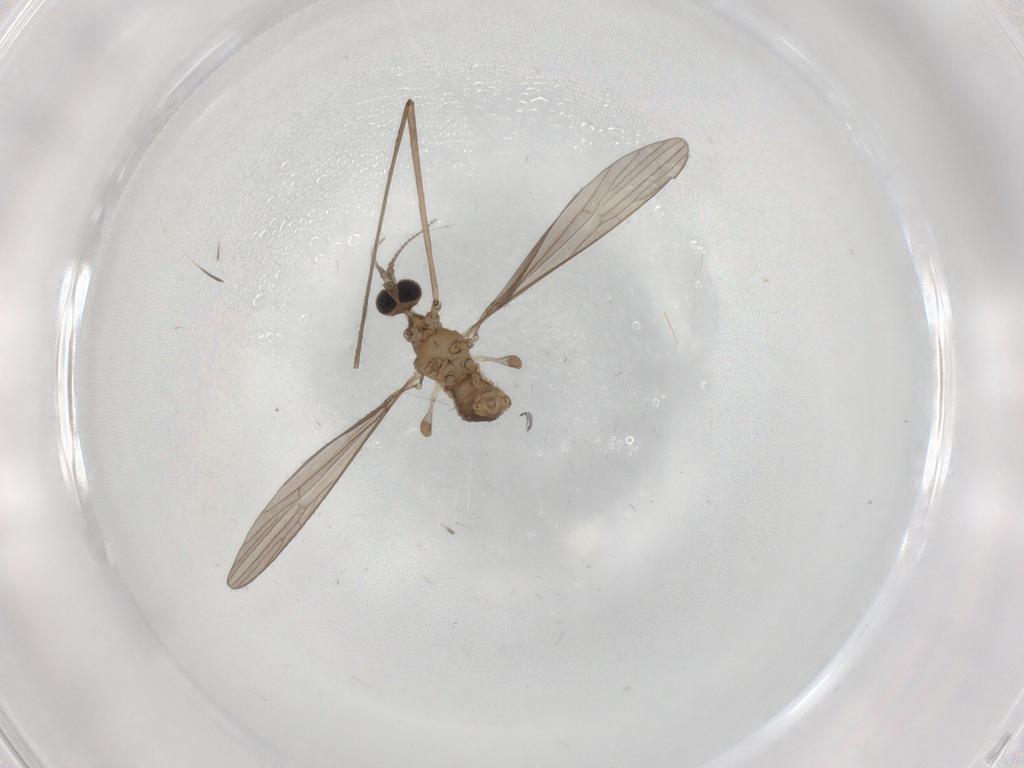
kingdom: Animalia
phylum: Arthropoda
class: Insecta
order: Diptera
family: Limoniidae
